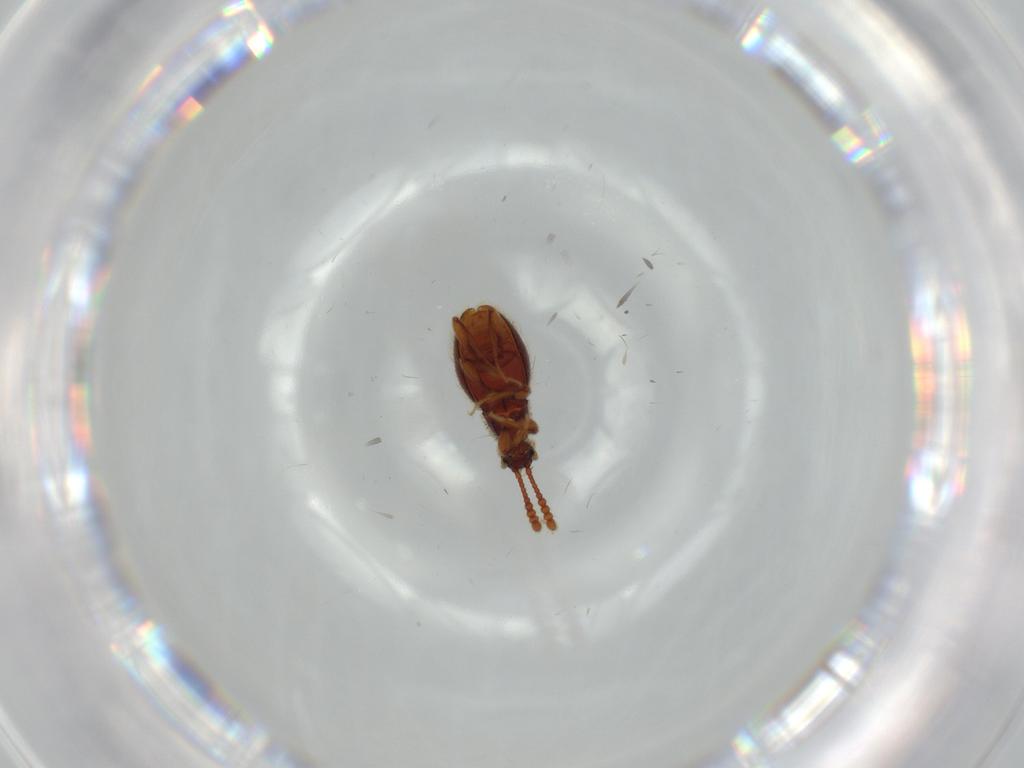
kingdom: Animalia
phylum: Arthropoda
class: Insecta
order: Coleoptera
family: Staphylinidae
